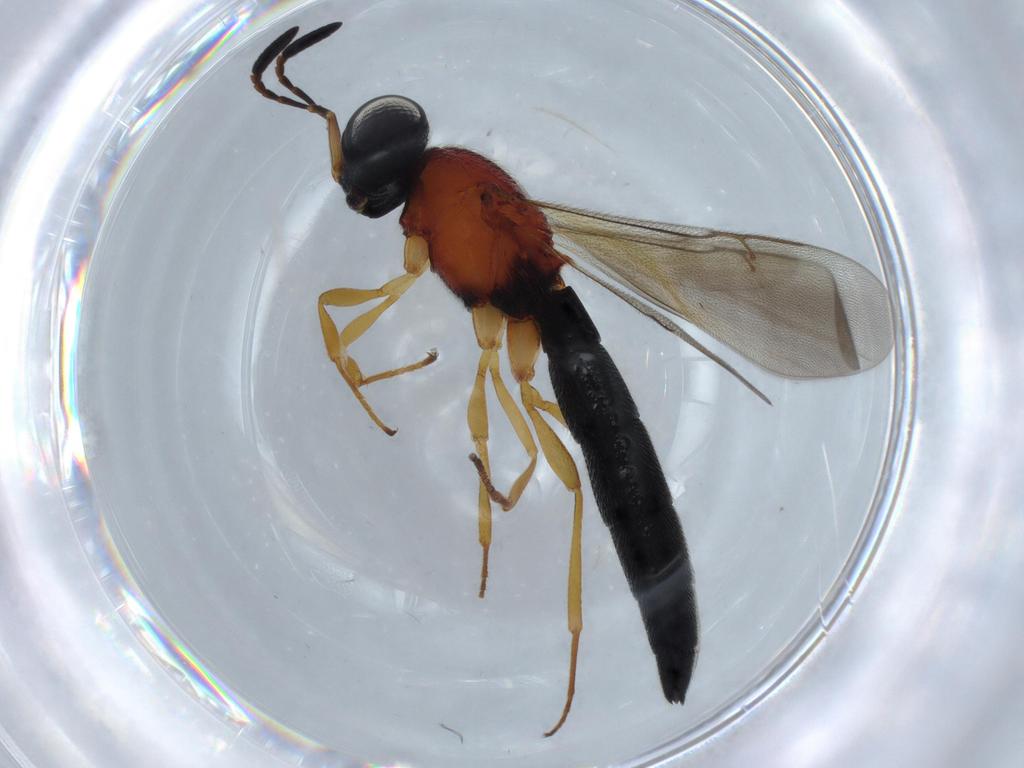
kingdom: Animalia
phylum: Arthropoda
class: Insecta
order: Hymenoptera
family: Scelionidae
